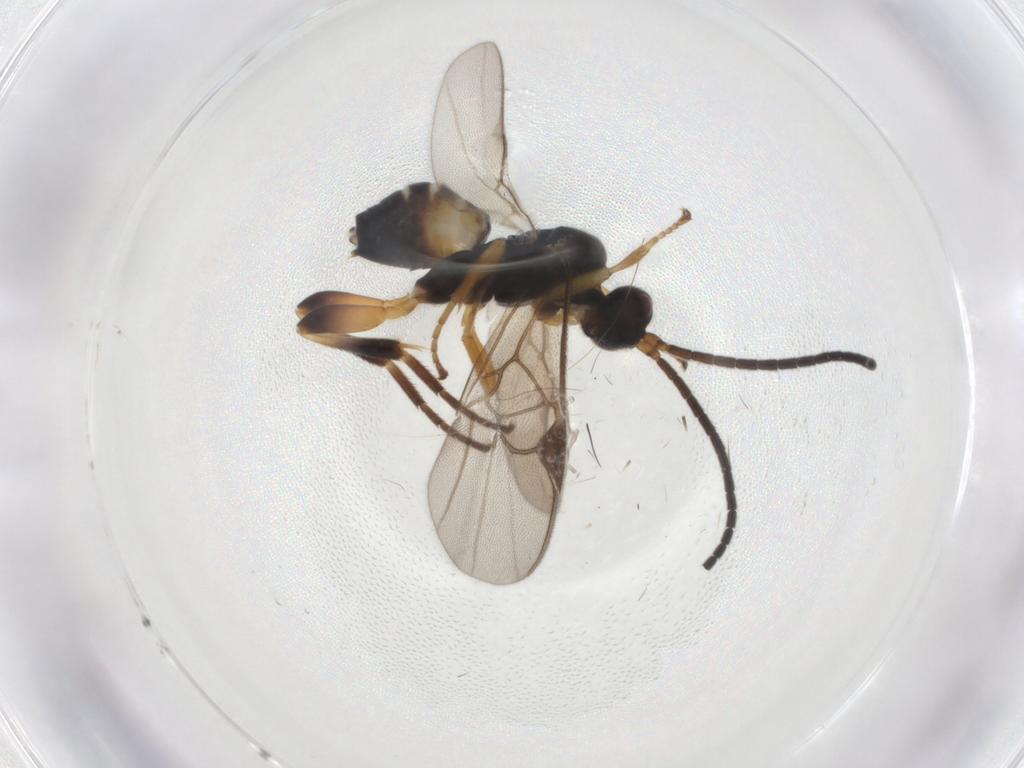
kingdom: Animalia
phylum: Arthropoda
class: Insecta
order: Hymenoptera
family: Braconidae
